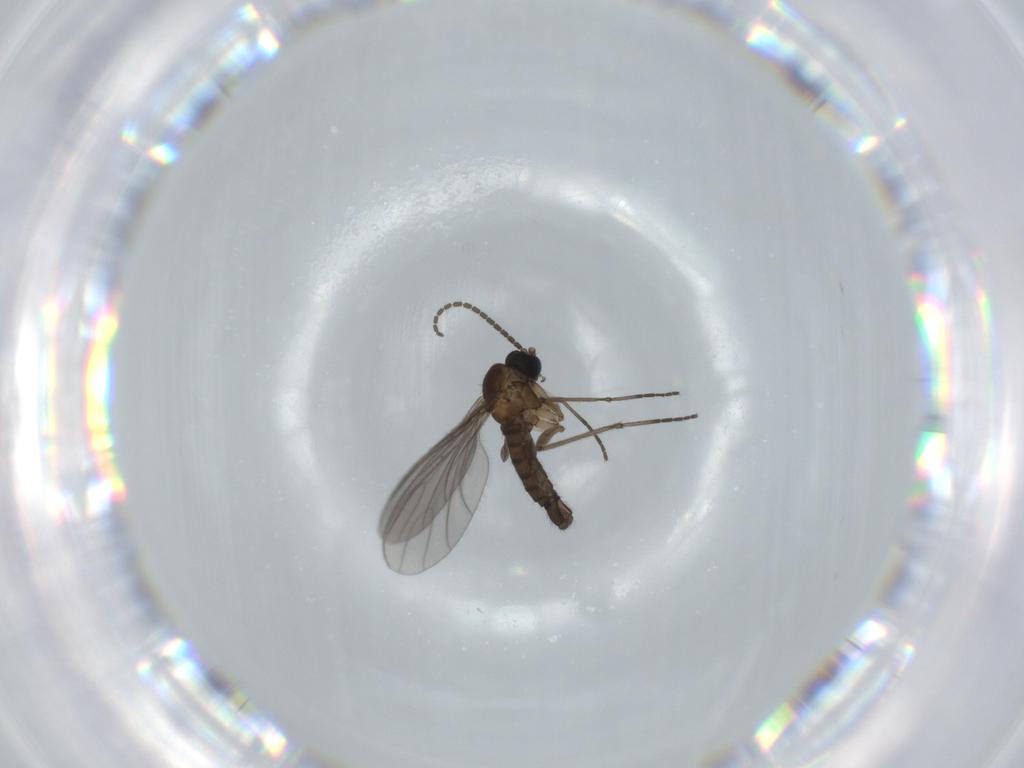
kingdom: Animalia
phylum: Arthropoda
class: Insecta
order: Diptera
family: Sciaridae
